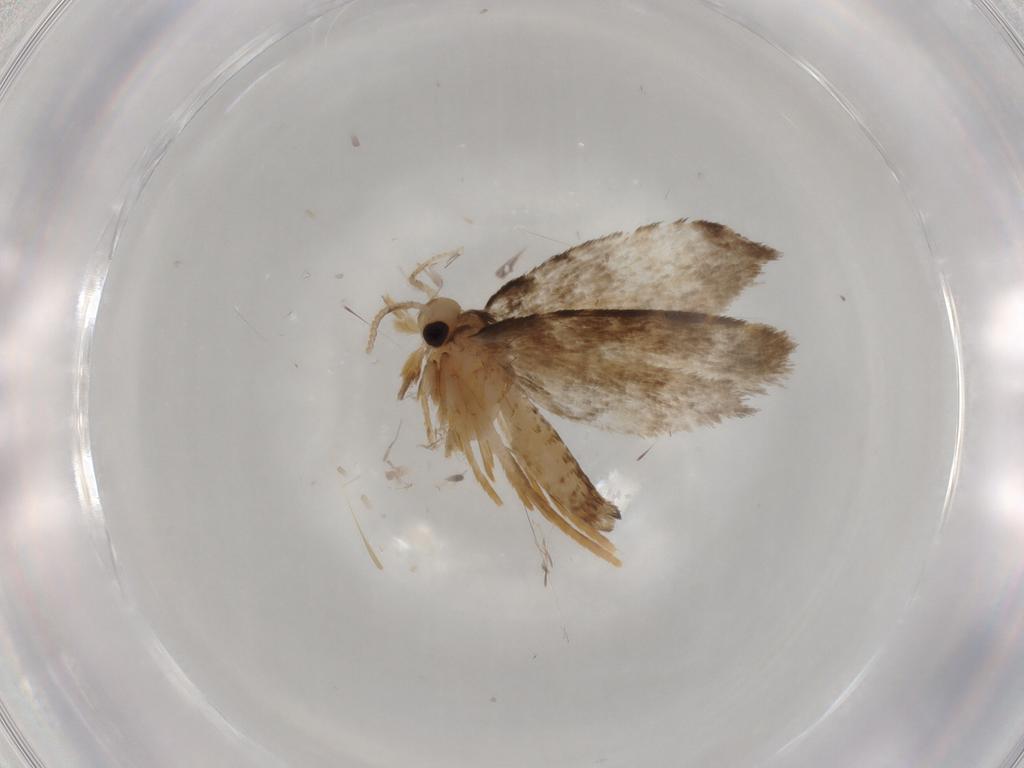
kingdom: Animalia
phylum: Arthropoda
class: Insecta
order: Lepidoptera
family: Psychidae
